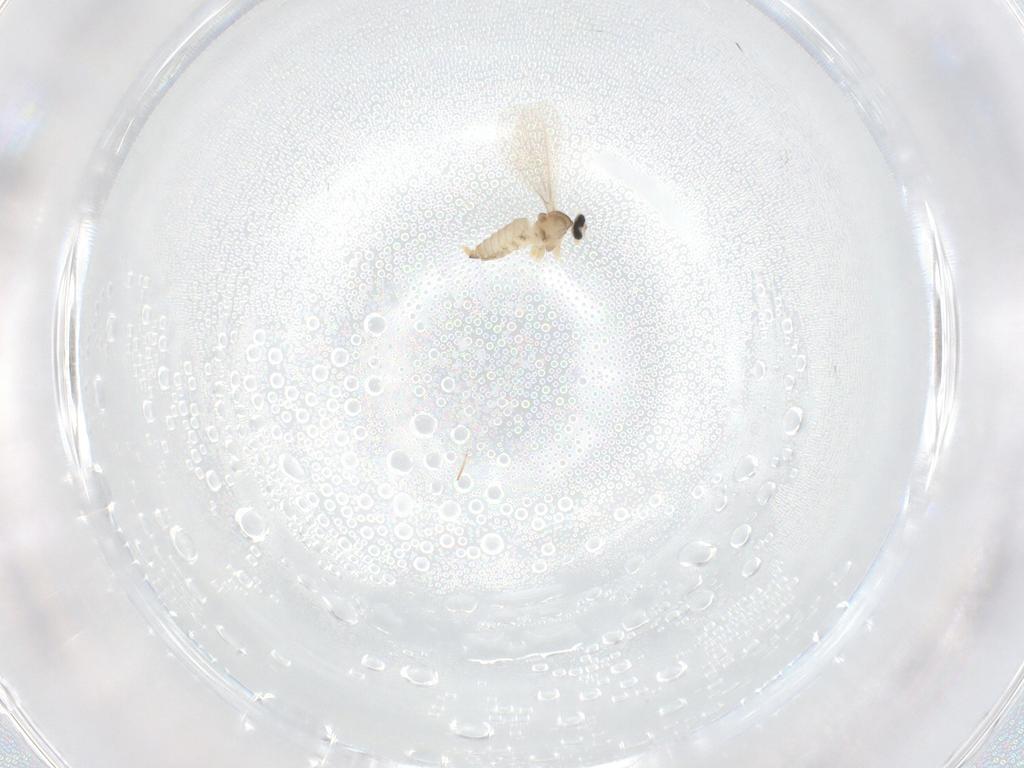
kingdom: Animalia
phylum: Arthropoda
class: Insecta
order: Diptera
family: Cecidomyiidae
